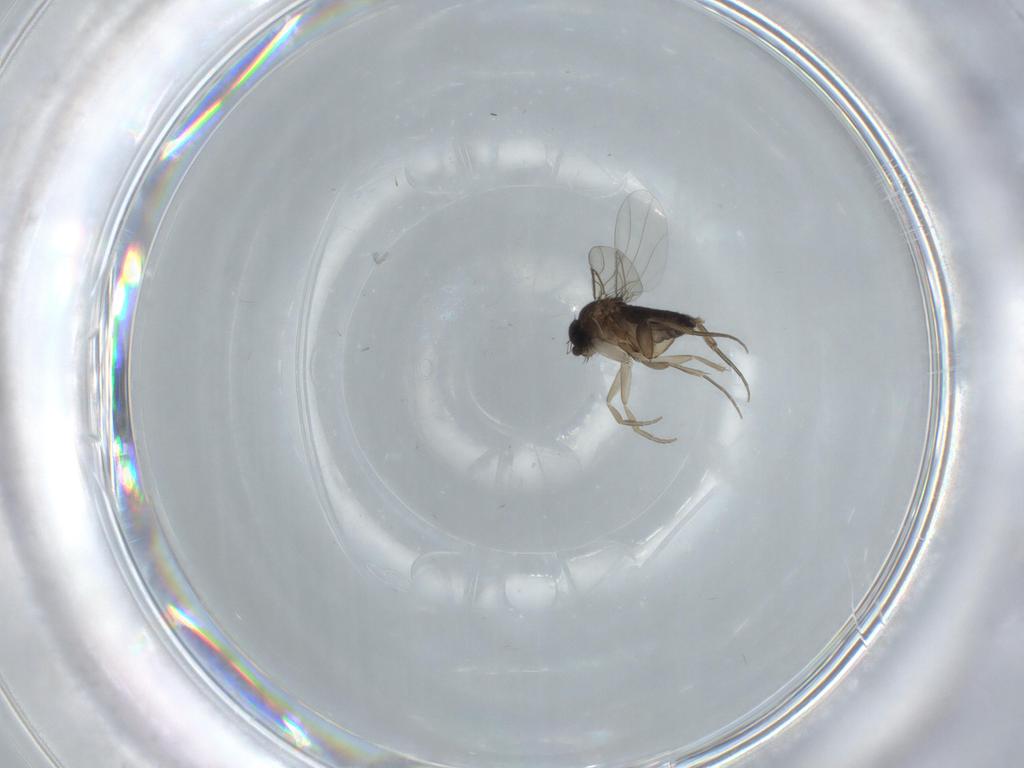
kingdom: Animalia
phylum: Arthropoda
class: Insecta
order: Diptera
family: Phoridae
